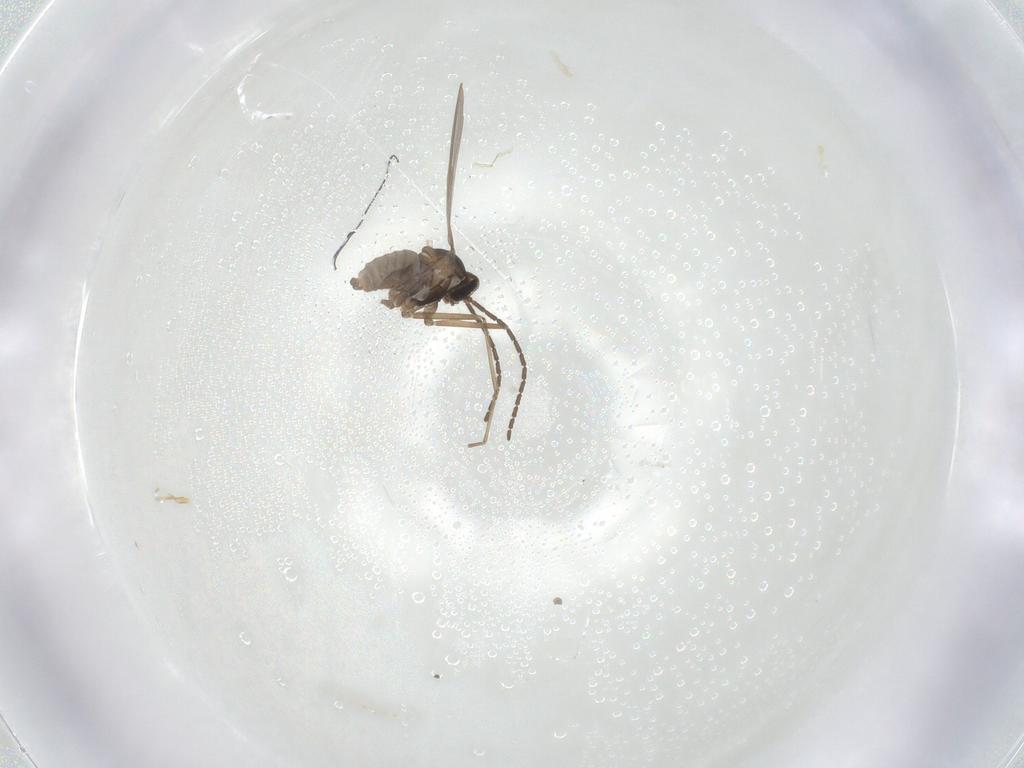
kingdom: Animalia
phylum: Arthropoda
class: Insecta
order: Diptera
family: Cecidomyiidae
